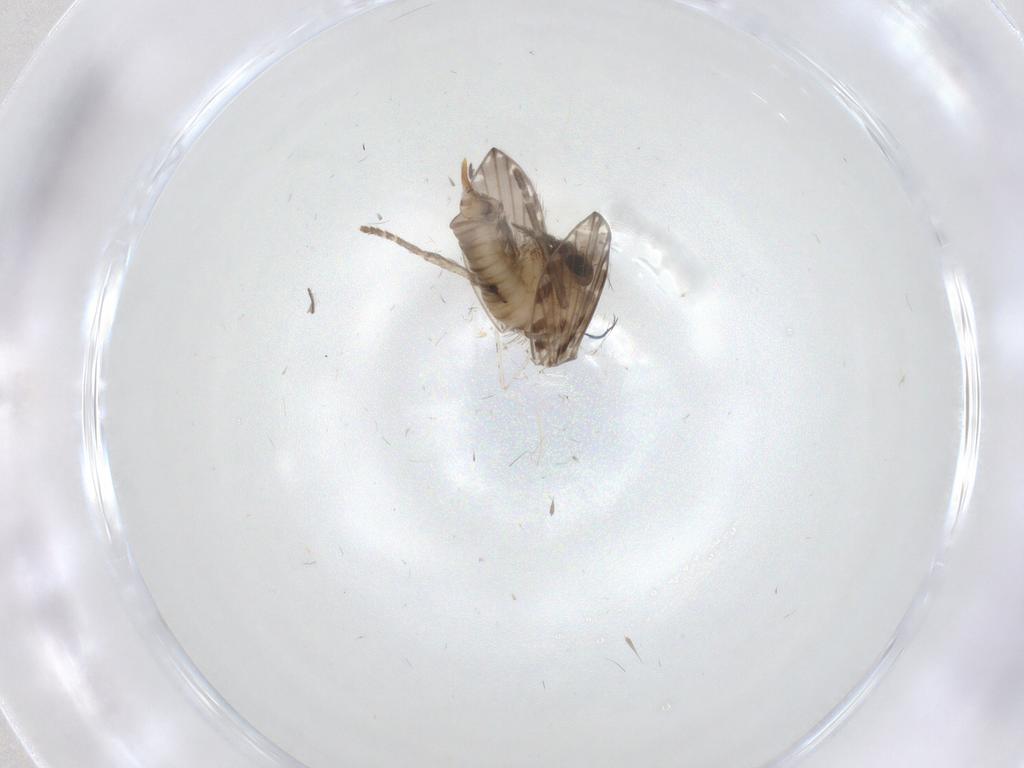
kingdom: Animalia
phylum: Arthropoda
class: Insecta
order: Diptera
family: Psychodidae
